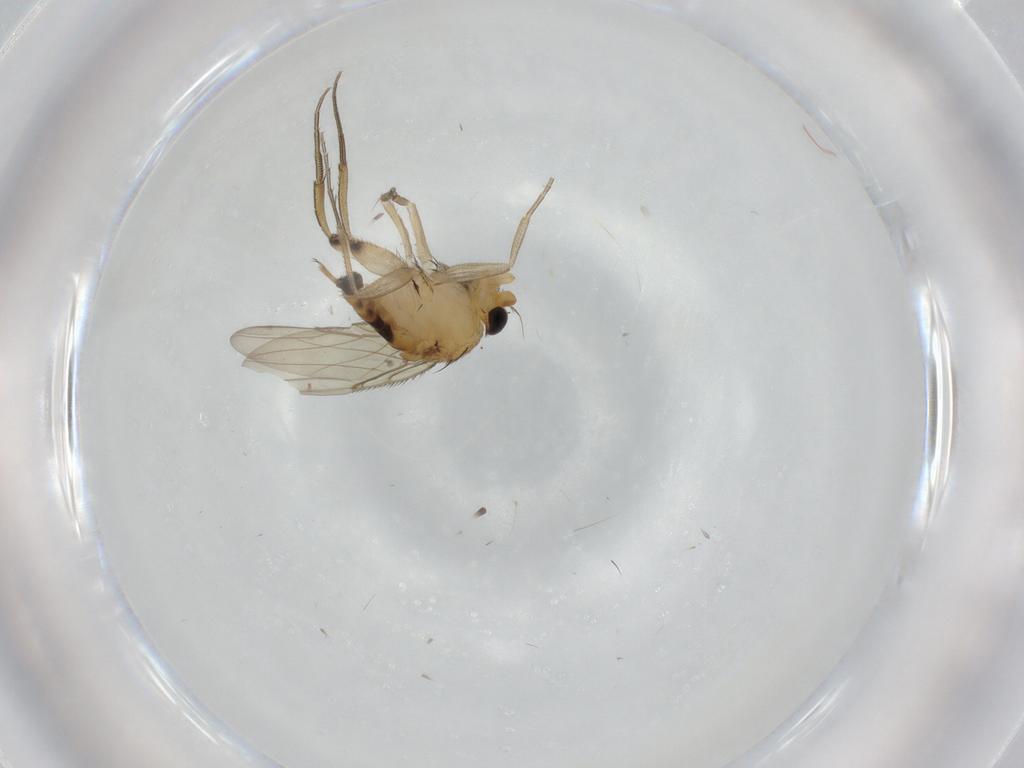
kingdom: Animalia
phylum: Arthropoda
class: Insecta
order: Diptera
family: Phoridae
